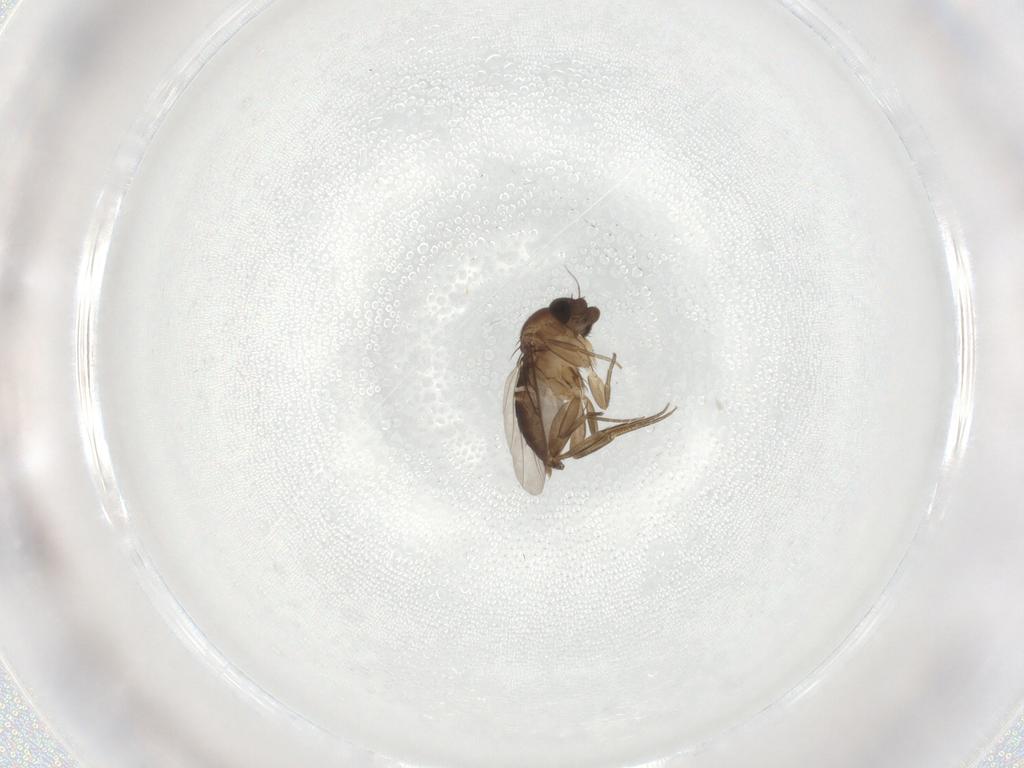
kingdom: Animalia
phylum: Arthropoda
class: Insecta
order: Diptera
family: Phoridae
